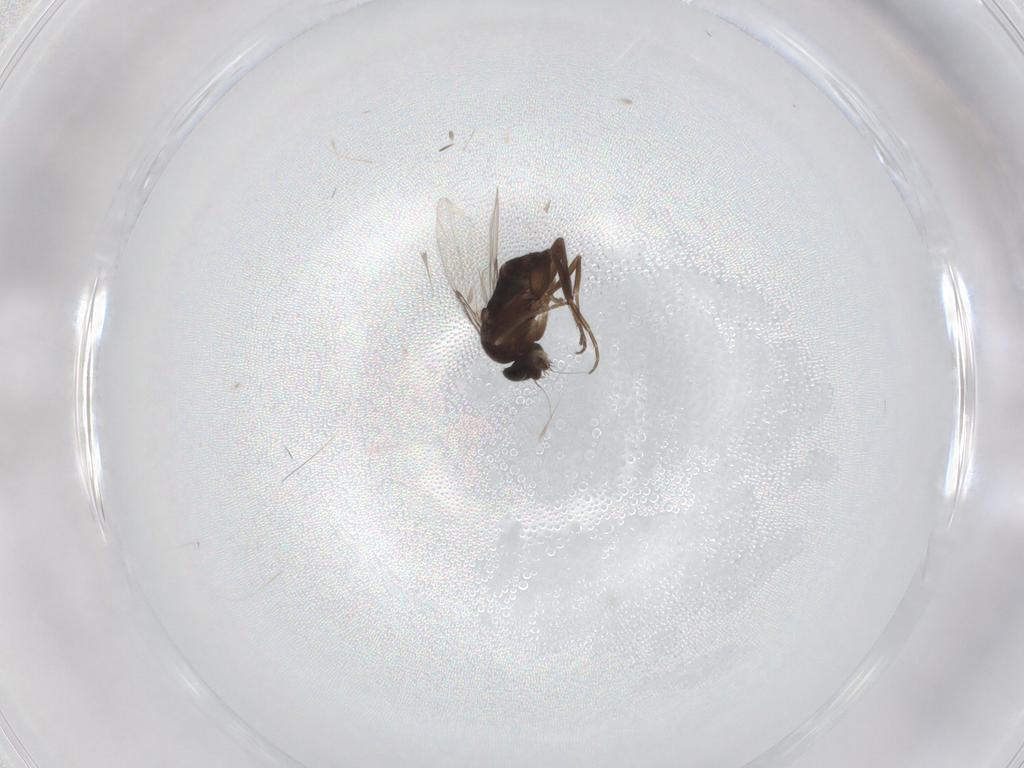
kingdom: Animalia
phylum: Arthropoda
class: Insecta
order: Diptera
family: Phoridae
